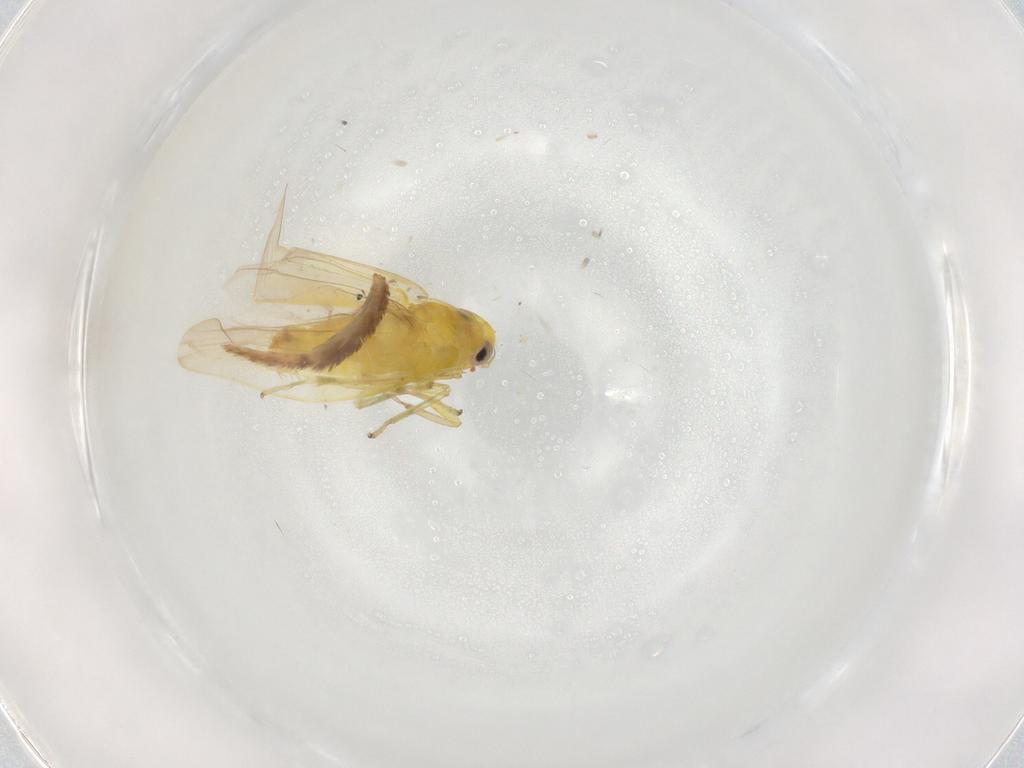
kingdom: Animalia
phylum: Arthropoda
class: Insecta
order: Hemiptera
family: Cicadellidae
